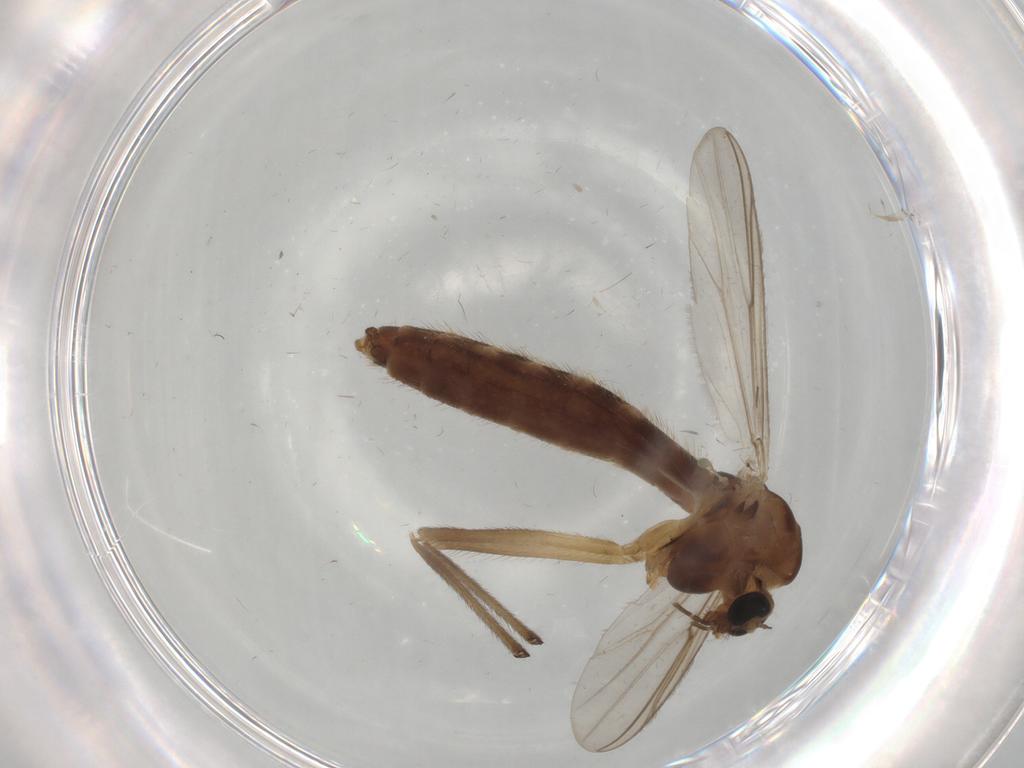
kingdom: Animalia
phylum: Arthropoda
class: Insecta
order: Diptera
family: Chironomidae
